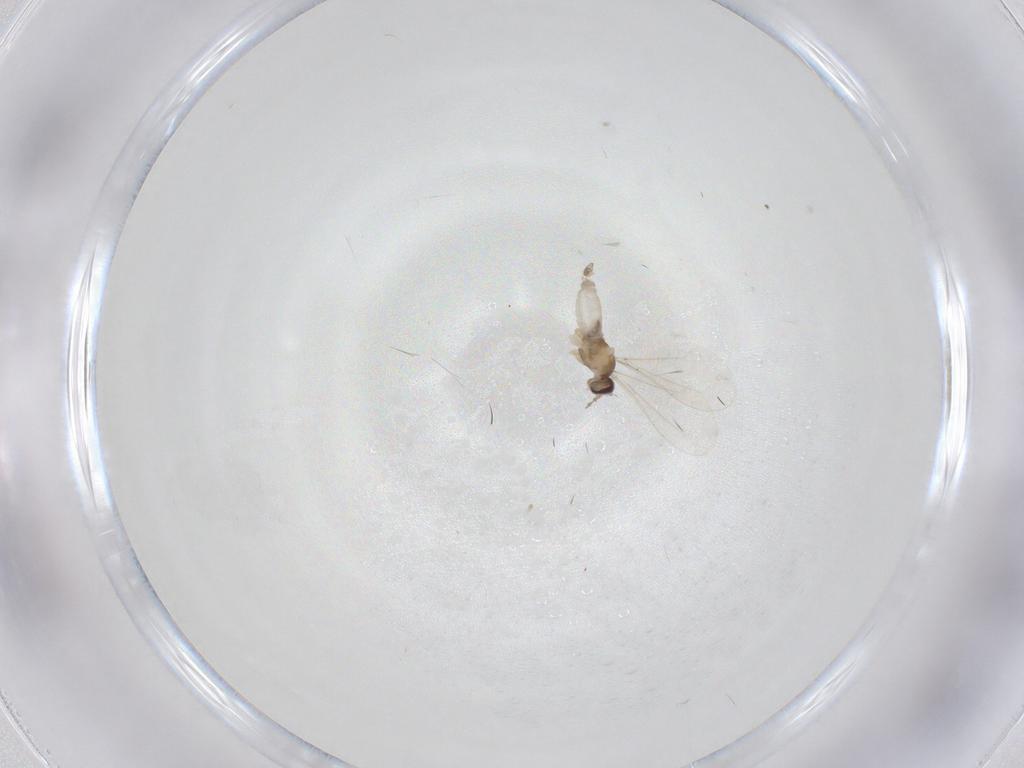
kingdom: Animalia
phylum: Arthropoda
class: Insecta
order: Diptera
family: Cecidomyiidae
